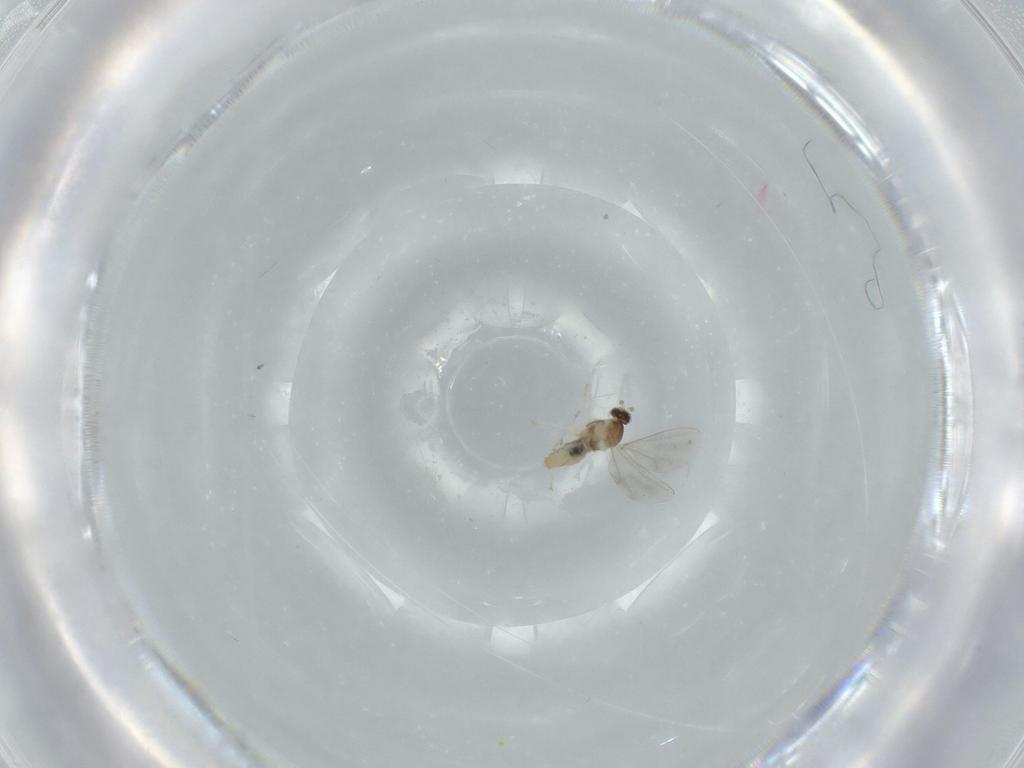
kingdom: Animalia
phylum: Arthropoda
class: Insecta
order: Diptera
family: Cecidomyiidae
